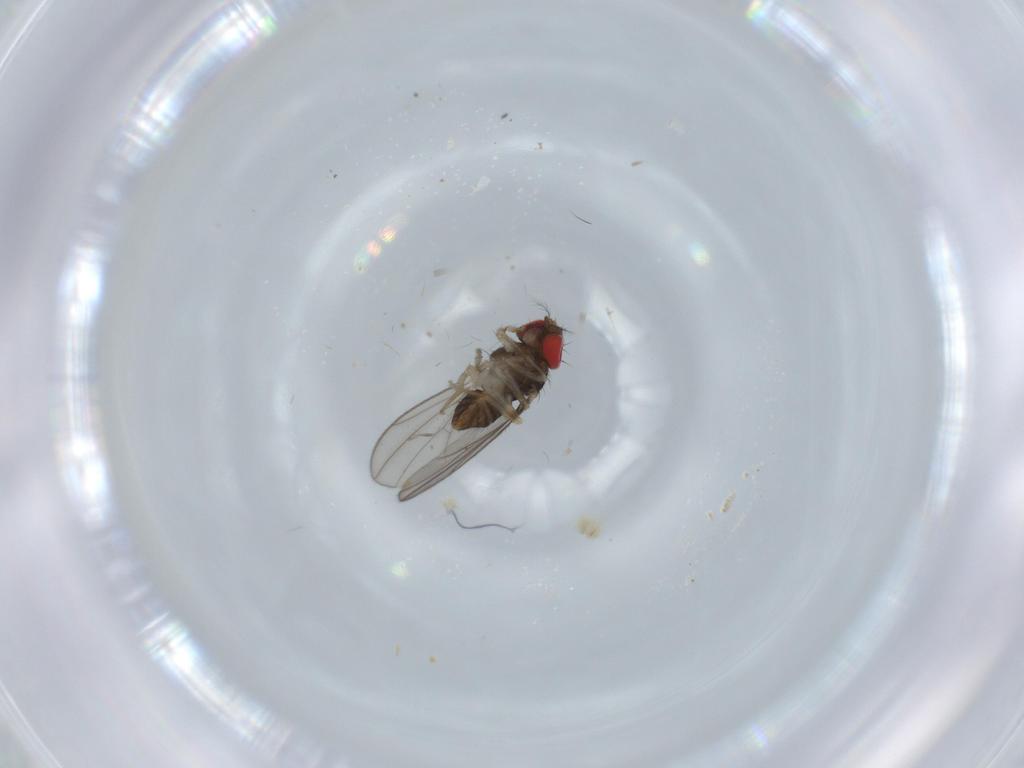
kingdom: Animalia
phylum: Arthropoda
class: Insecta
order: Diptera
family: Drosophilidae
